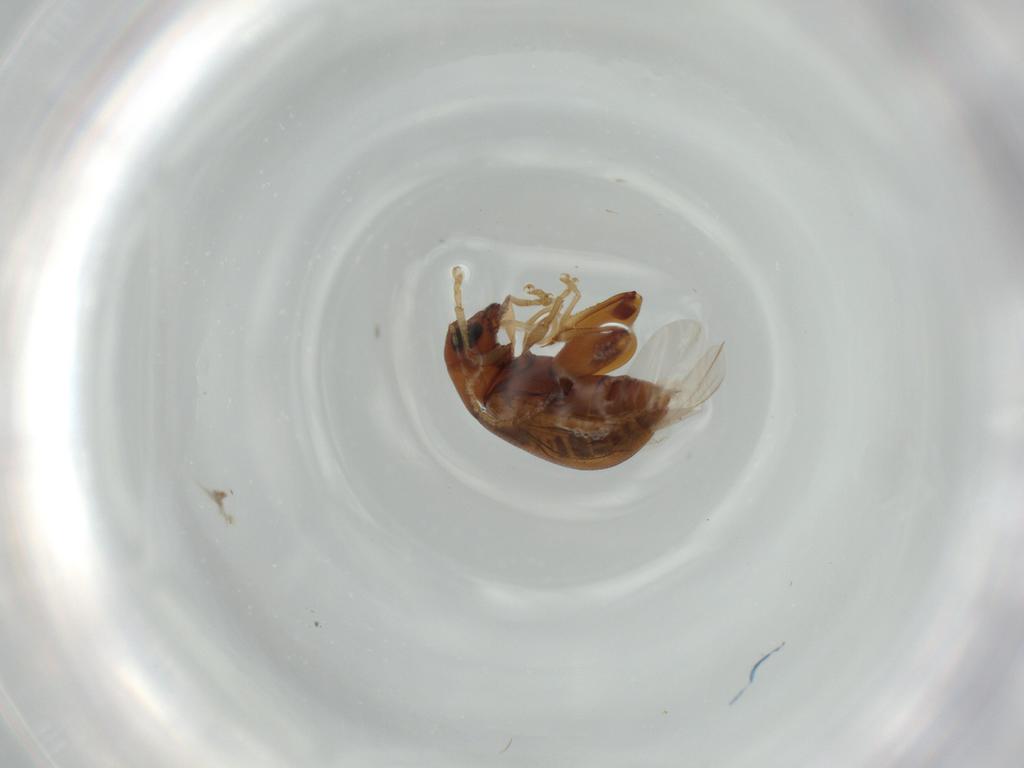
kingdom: Animalia
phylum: Arthropoda
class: Insecta
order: Coleoptera
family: Chrysomelidae
